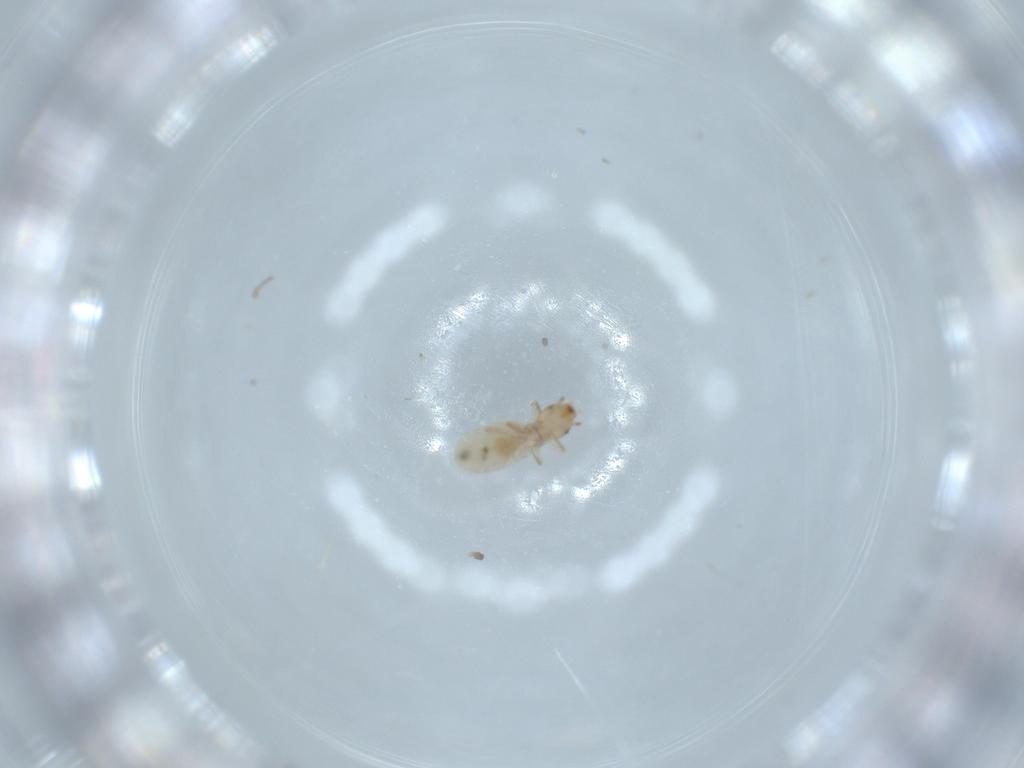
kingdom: Animalia
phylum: Arthropoda
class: Insecta
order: Psocodea
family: Liposcelididae
